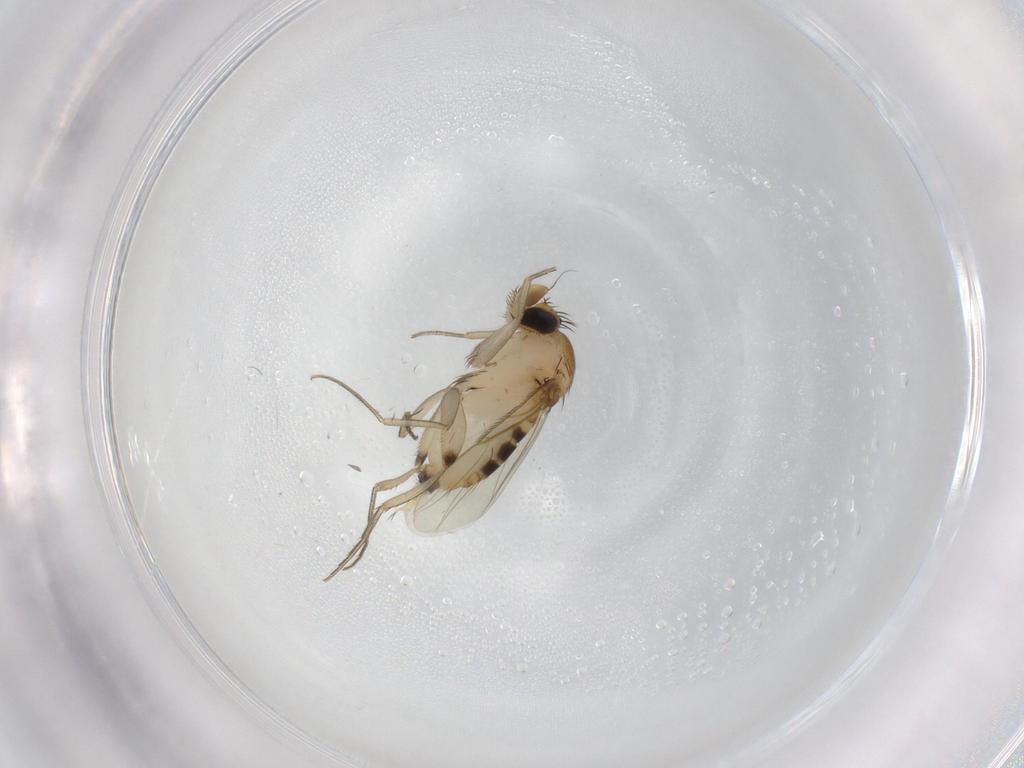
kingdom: Animalia
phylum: Arthropoda
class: Insecta
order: Diptera
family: Phoridae
